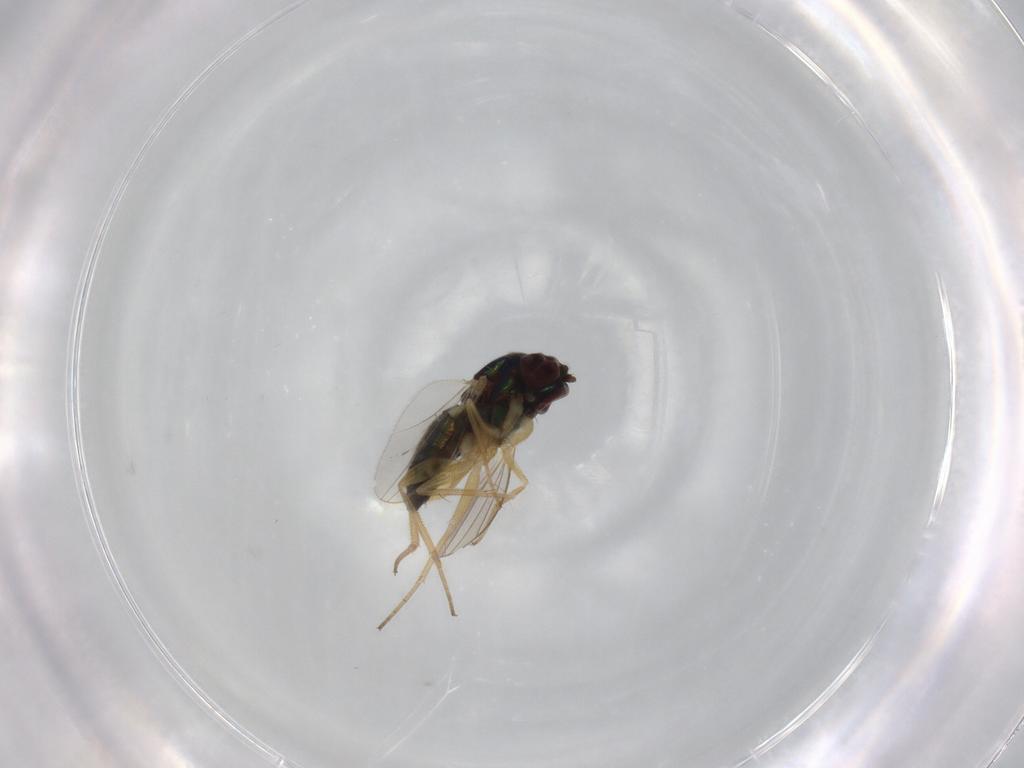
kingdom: Animalia
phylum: Arthropoda
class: Insecta
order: Diptera
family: Dolichopodidae
